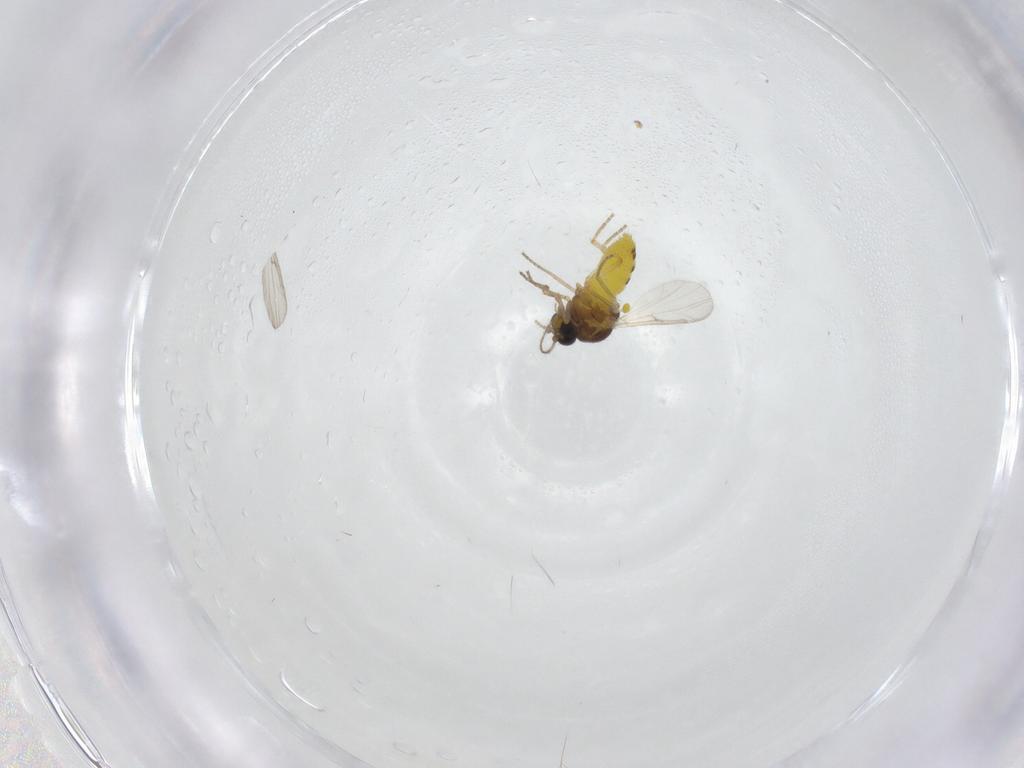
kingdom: Animalia
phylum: Arthropoda
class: Insecta
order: Diptera
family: Ceratopogonidae
